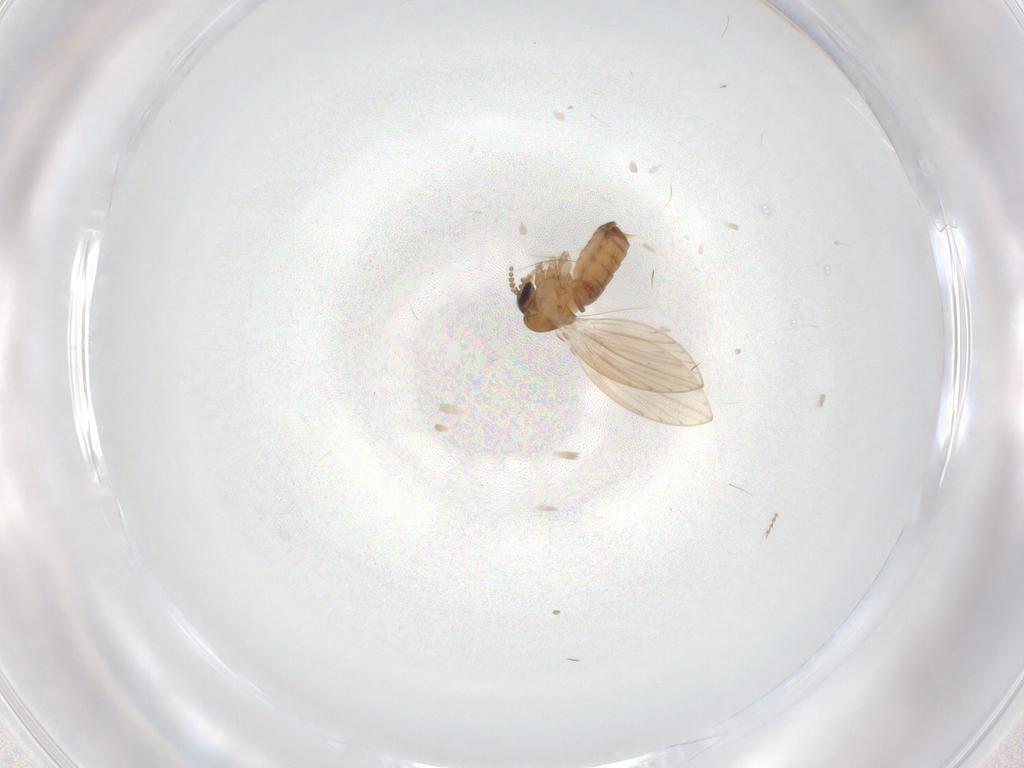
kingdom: Animalia
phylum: Arthropoda
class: Insecta
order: Diptera
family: Psychodidae
